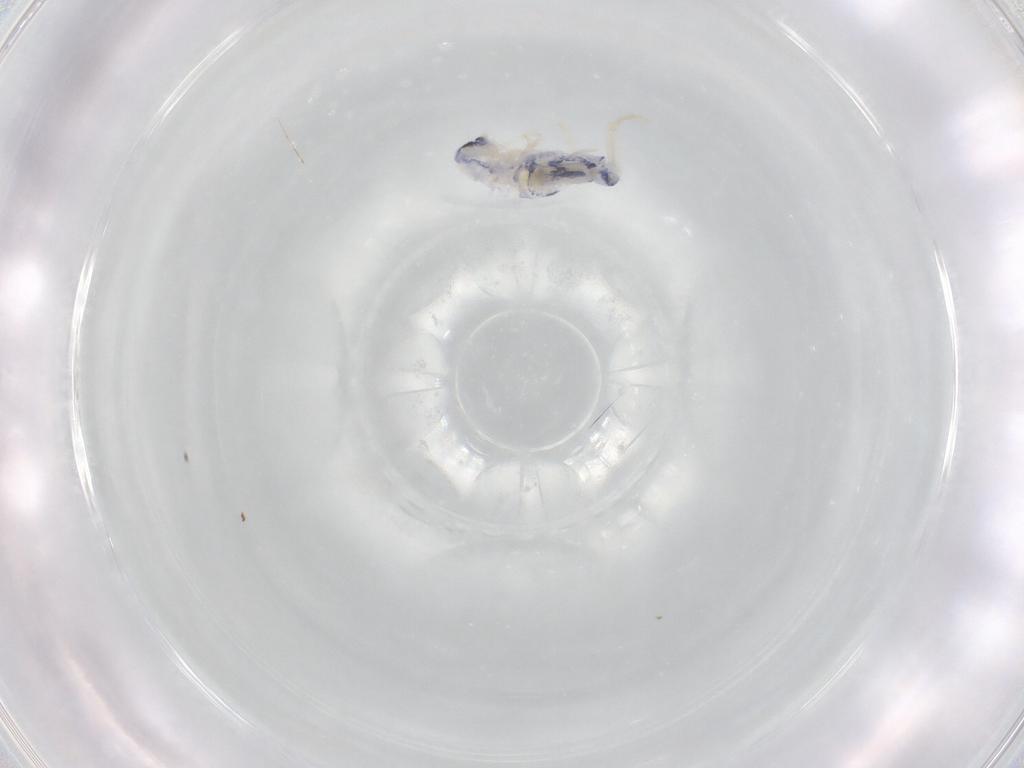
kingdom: Animalia
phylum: Arthropoda
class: Collembola
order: Entomobryomorpha
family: Entomobryidae
